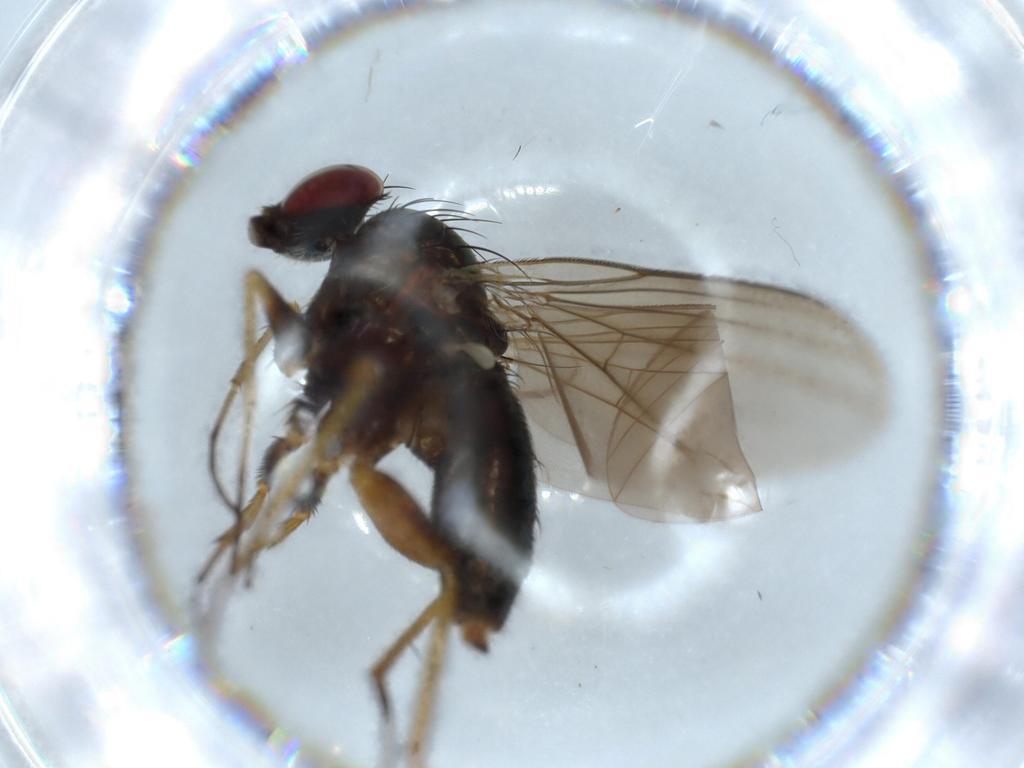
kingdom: Animalia
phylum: Arthropoda
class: Insecta
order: Diptera
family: Dolichopodidae
